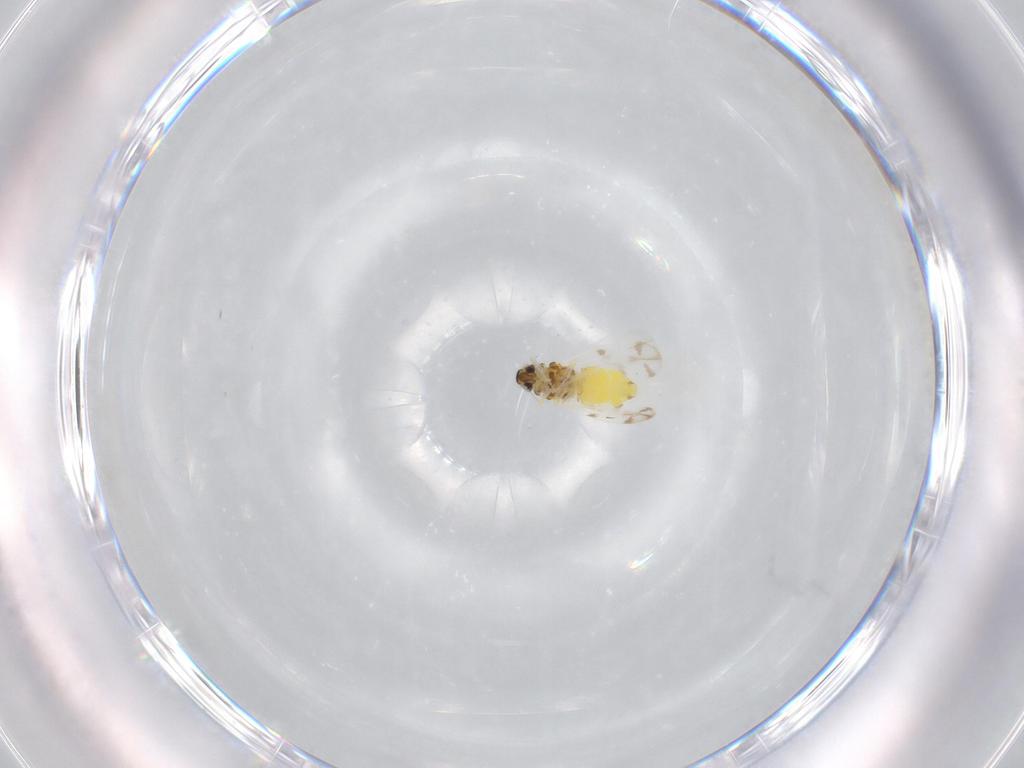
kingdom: Animalia
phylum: Arthropoda
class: Insecta
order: Hemiptera
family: Aleyrodidae
